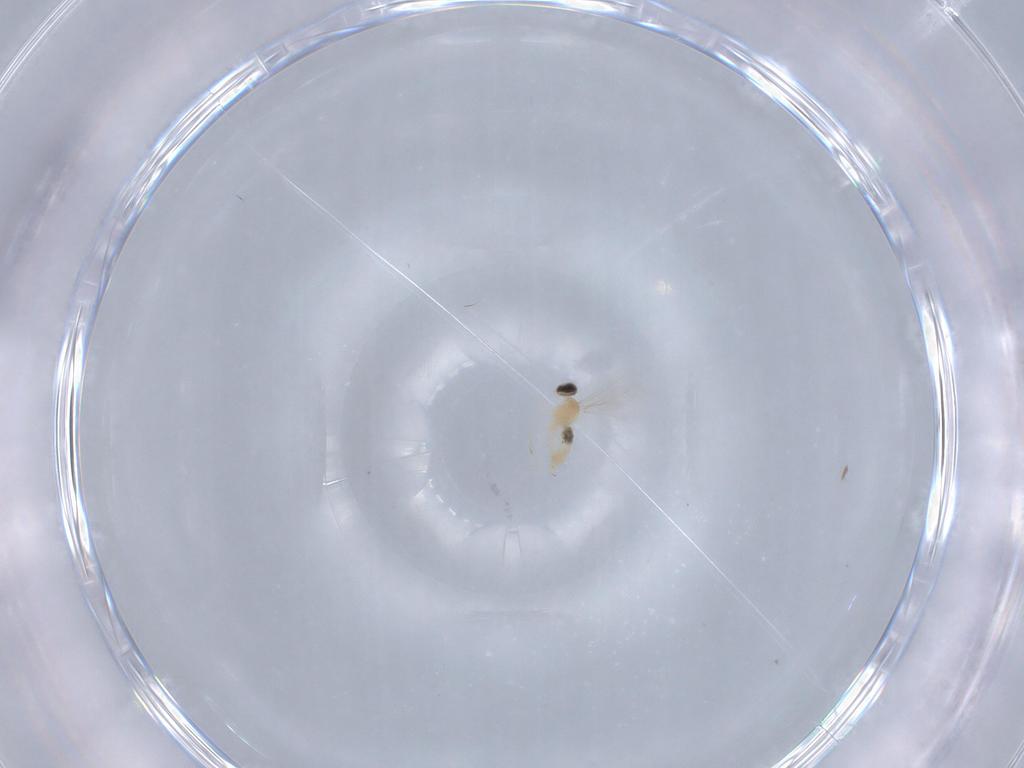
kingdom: Animalia
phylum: Arthropoda
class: Insecta
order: Diptera
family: Cecidomyiidae
